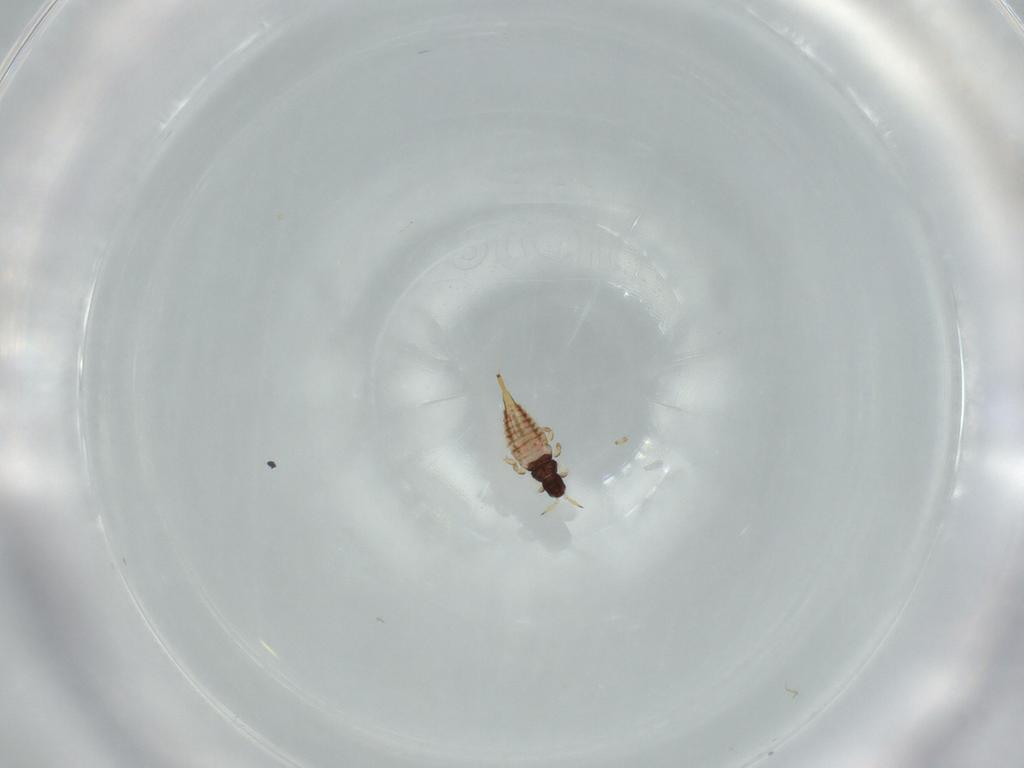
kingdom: Animalia
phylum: Arthropoda
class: Insecta
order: Thysanoptera
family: Phlaeothripidae
